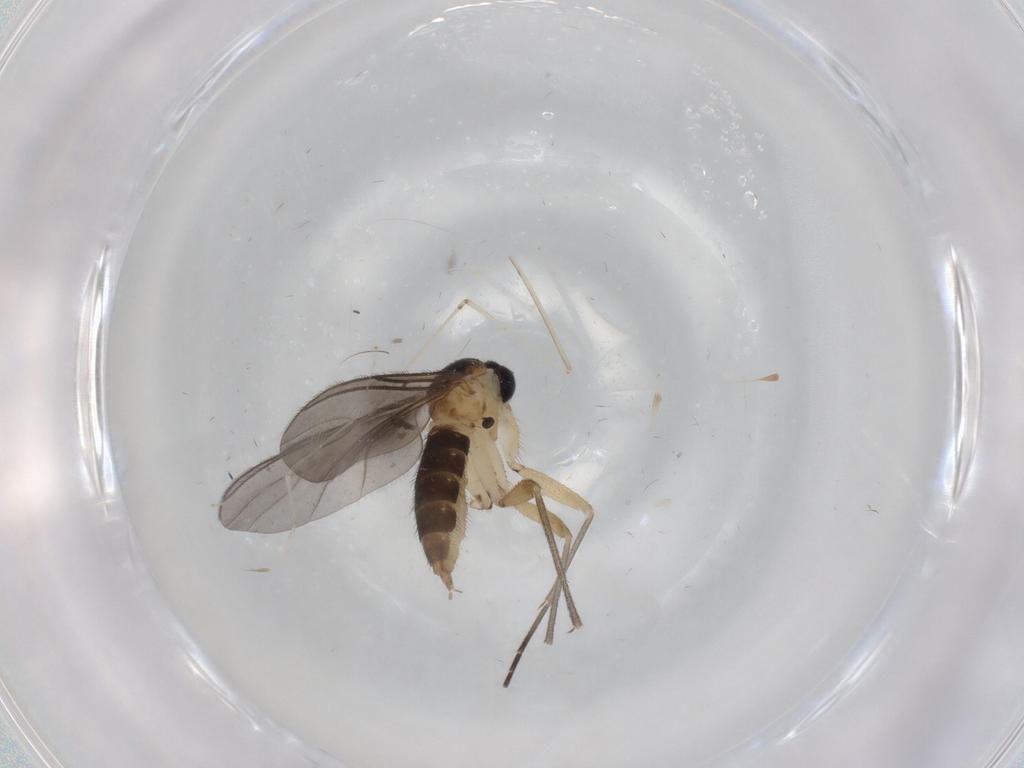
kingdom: Animalia
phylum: Arthropoda
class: Insecta
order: Diptera
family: Sciaridae
